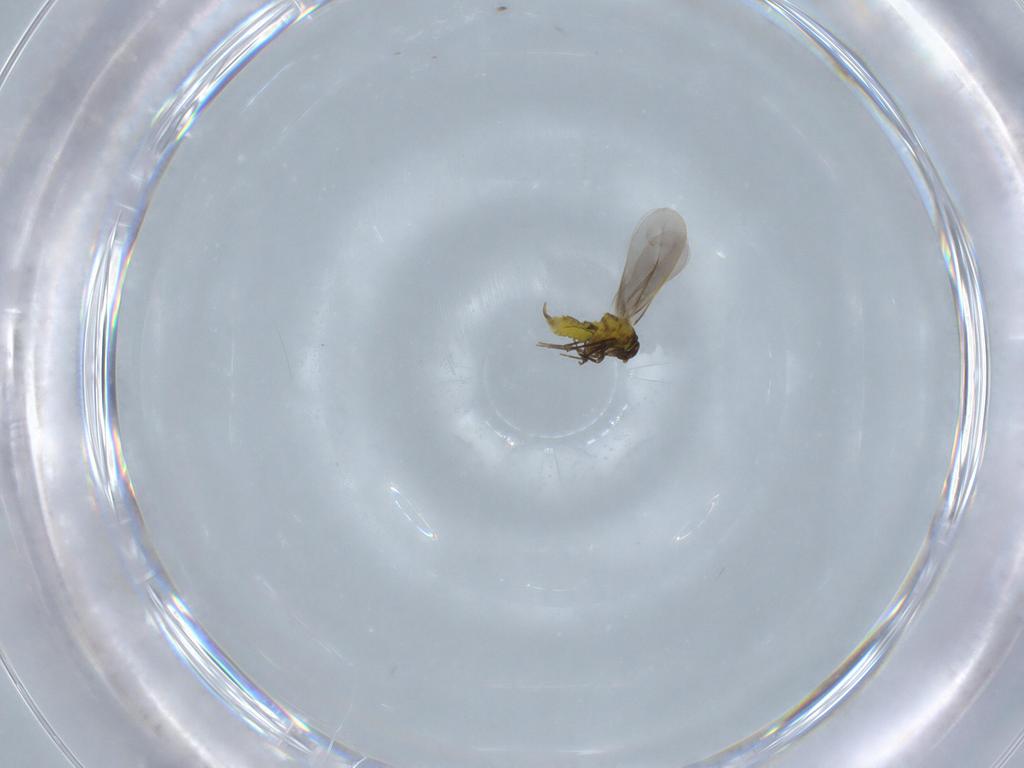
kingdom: Animalia
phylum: Arthropoda
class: Insecta
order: Hemiptera
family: Aleyrodidae
